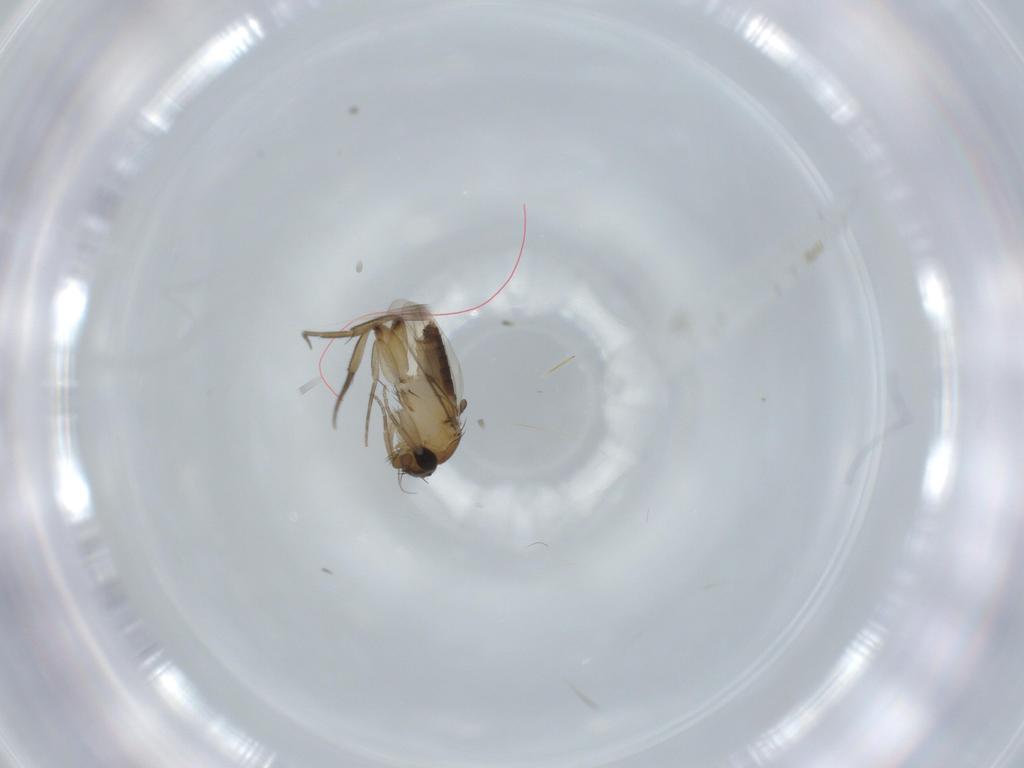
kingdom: Animalia
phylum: Arthropoda
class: Insecta
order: Diptera
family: Phoridae
